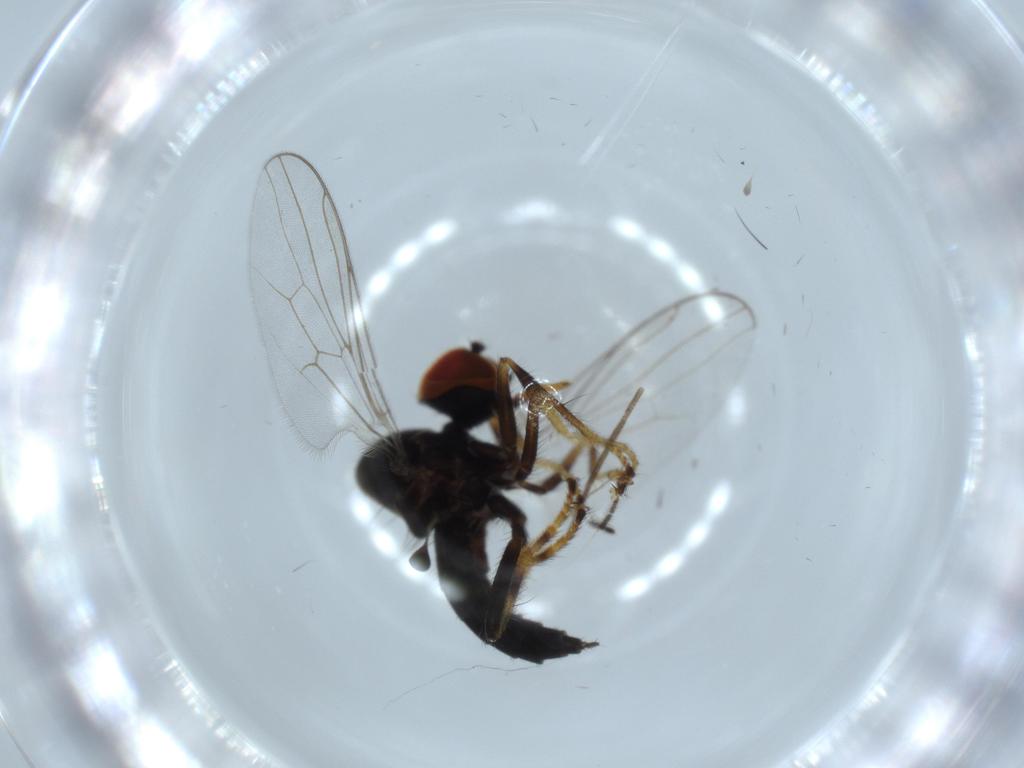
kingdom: Animalia
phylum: Arthropoda
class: Insecta
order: Diptera
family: Hybotidae
